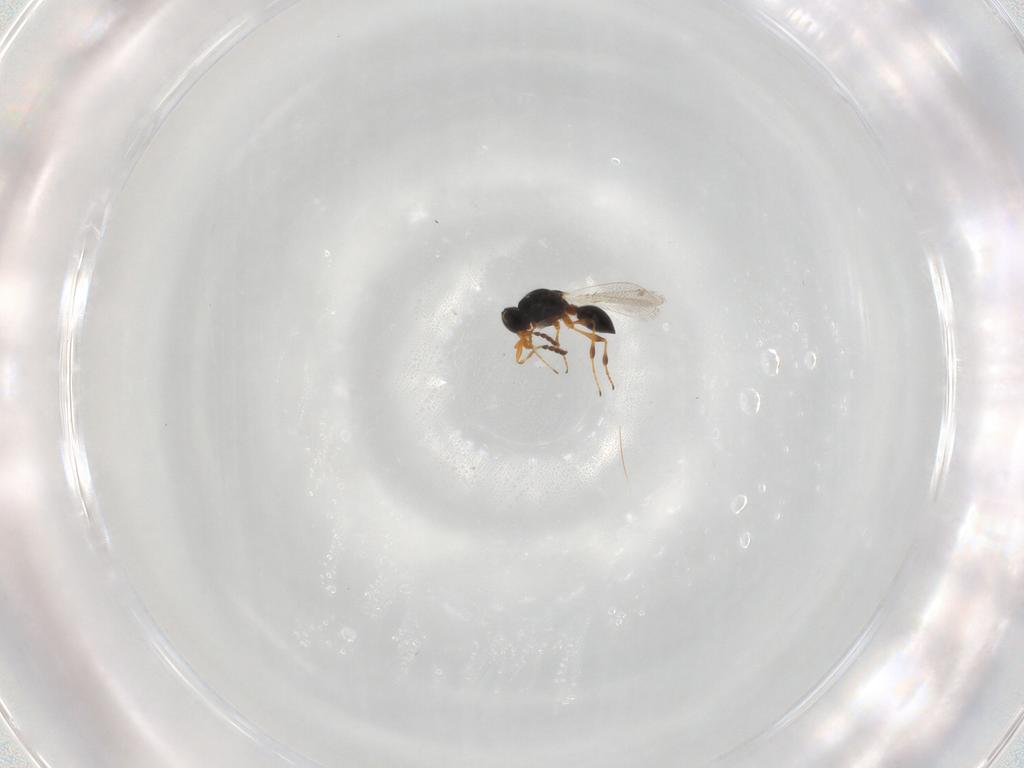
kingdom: Animalia
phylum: Arthropoda
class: Insecta
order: Hymenoptera
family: Platygastridae
